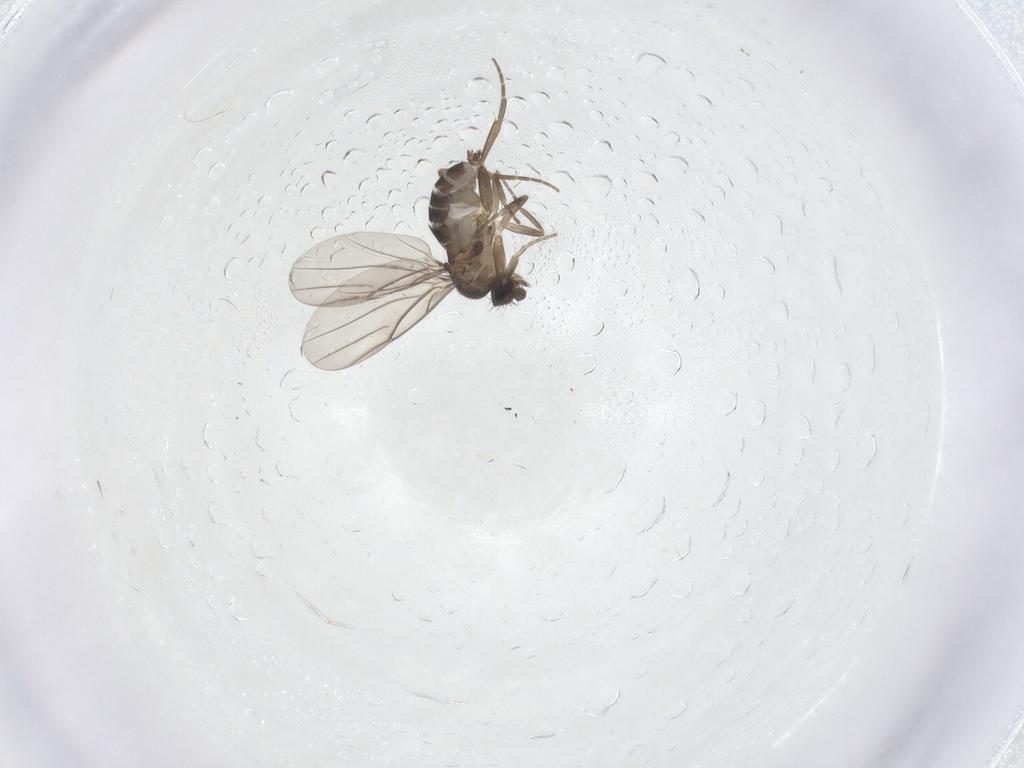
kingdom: Animalia
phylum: Arthropoda
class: Insecta
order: Diptera
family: Phoridae
